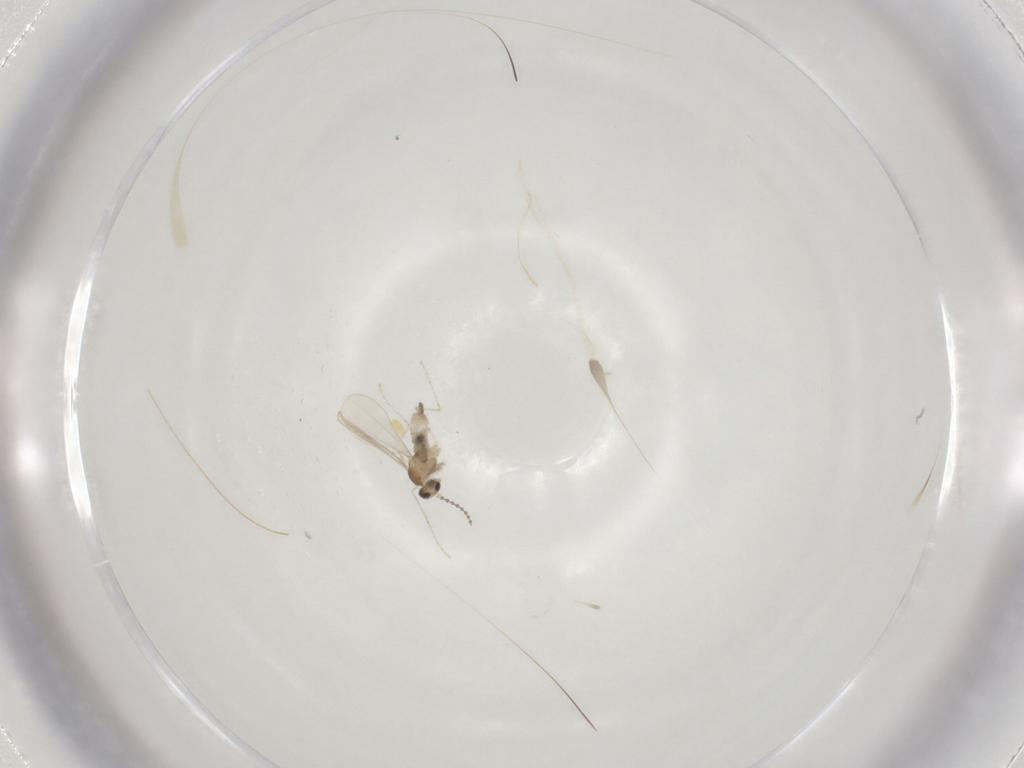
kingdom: Animalia
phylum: Arthropoda
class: Insecta
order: Diptera
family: Cecidomyiidae
